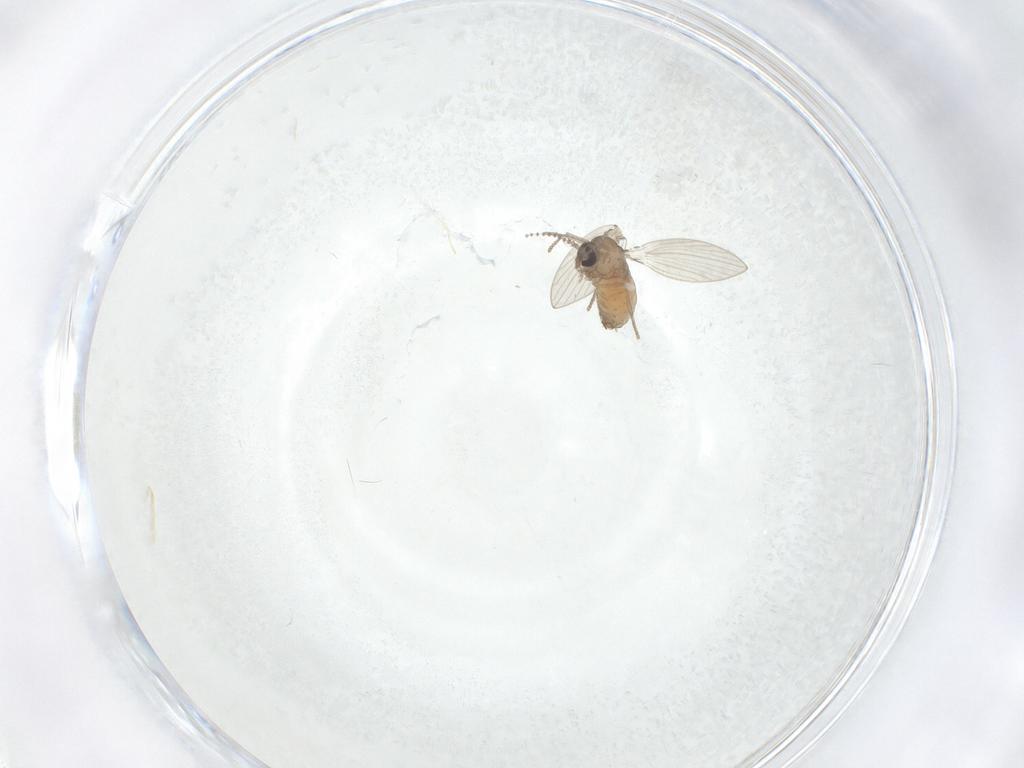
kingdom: Animalia
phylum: Arthropoda
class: Insecta
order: Diptera
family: Psychodidae
